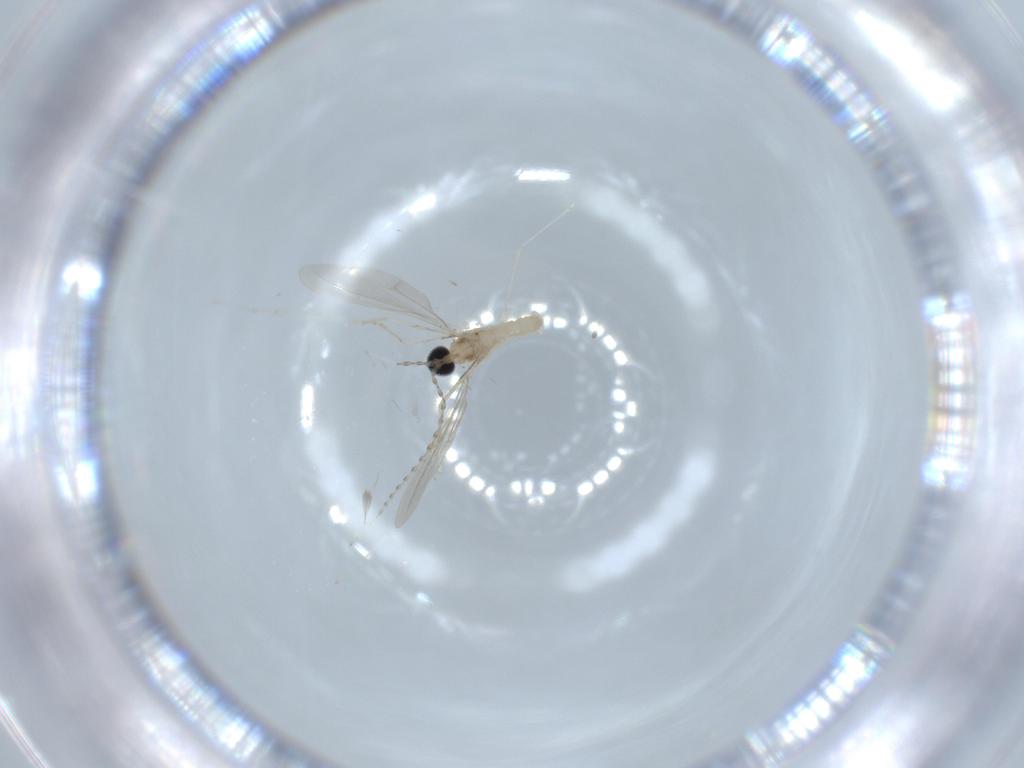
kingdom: Animalia
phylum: Arthropoda
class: Insecta
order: Diptera
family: Cecidomyiidae
